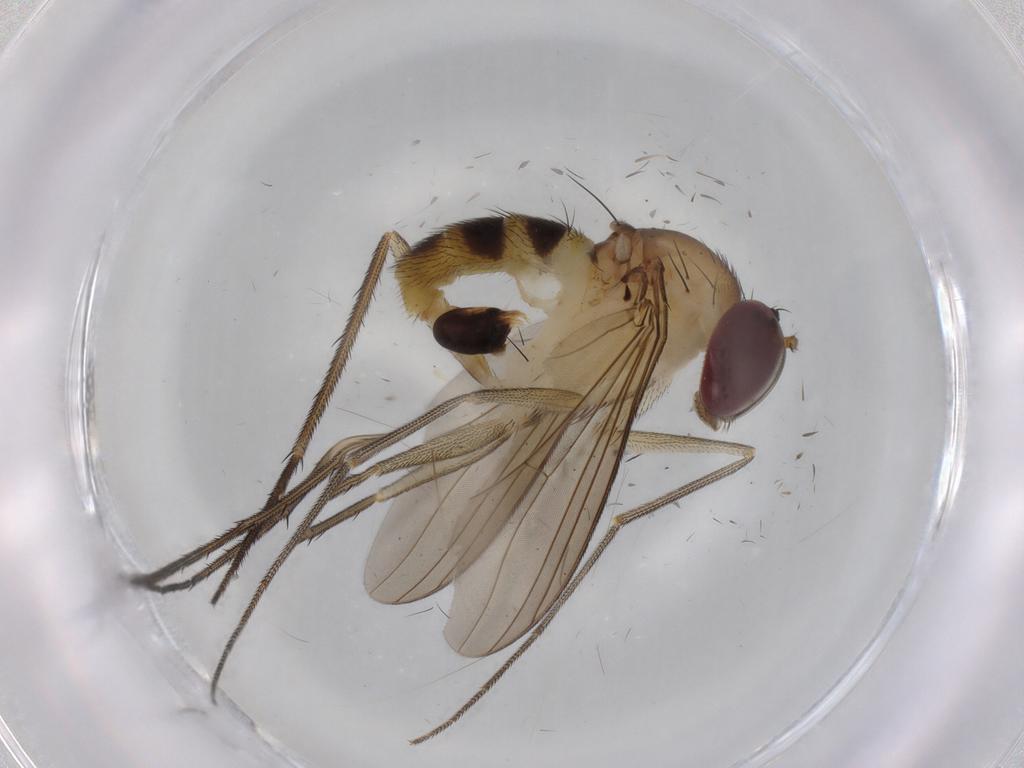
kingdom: Animalia
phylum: Arthropoda
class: Insecta
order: Diptera
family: Dolichopodidae
